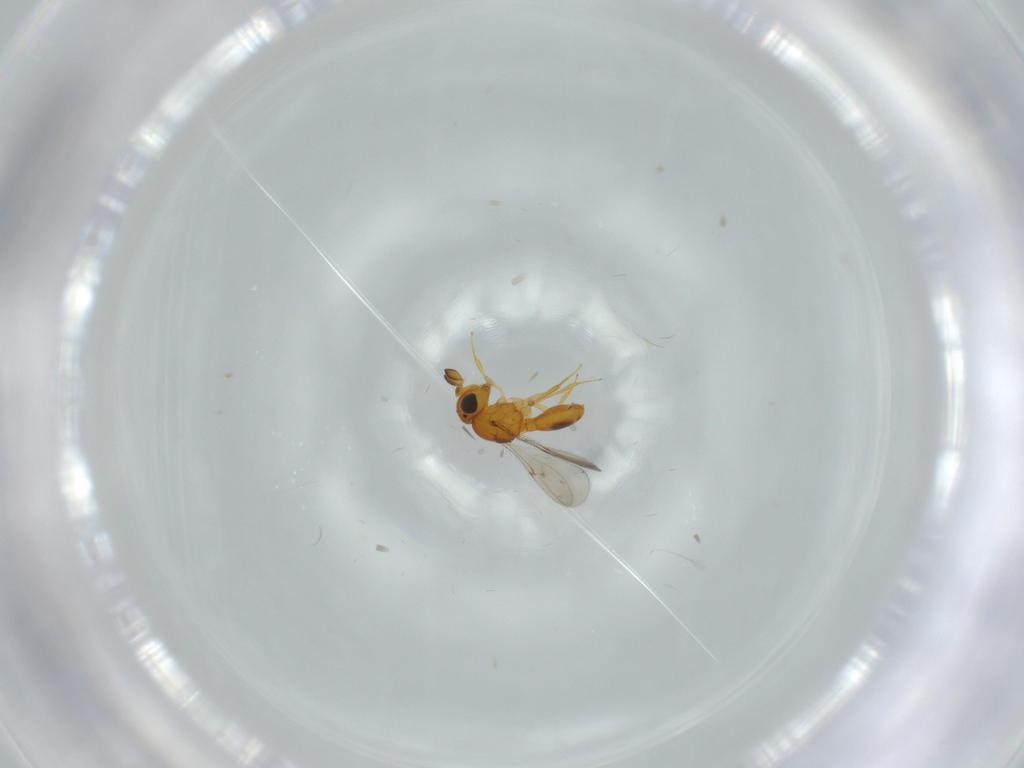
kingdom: Animalia
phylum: Arthropoda
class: Insecta
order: Hymenoptera
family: Scelionidae
